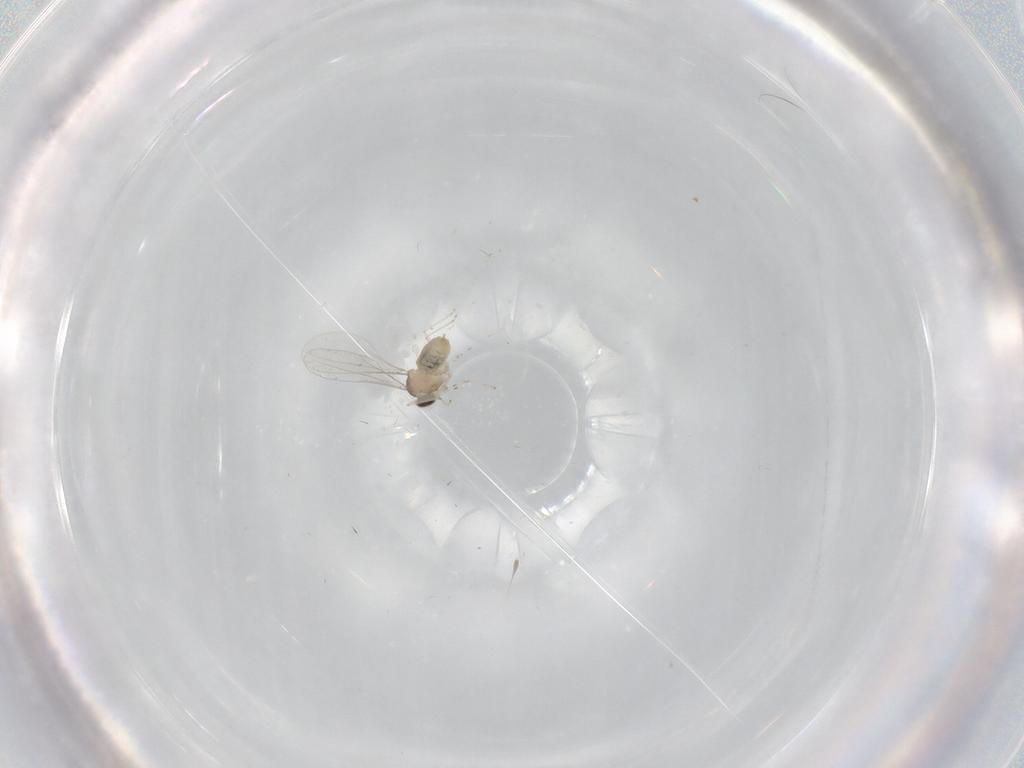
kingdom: Animalia
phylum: Arthropoda
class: Insecta
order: Diptera
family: Cecidomyiidae
